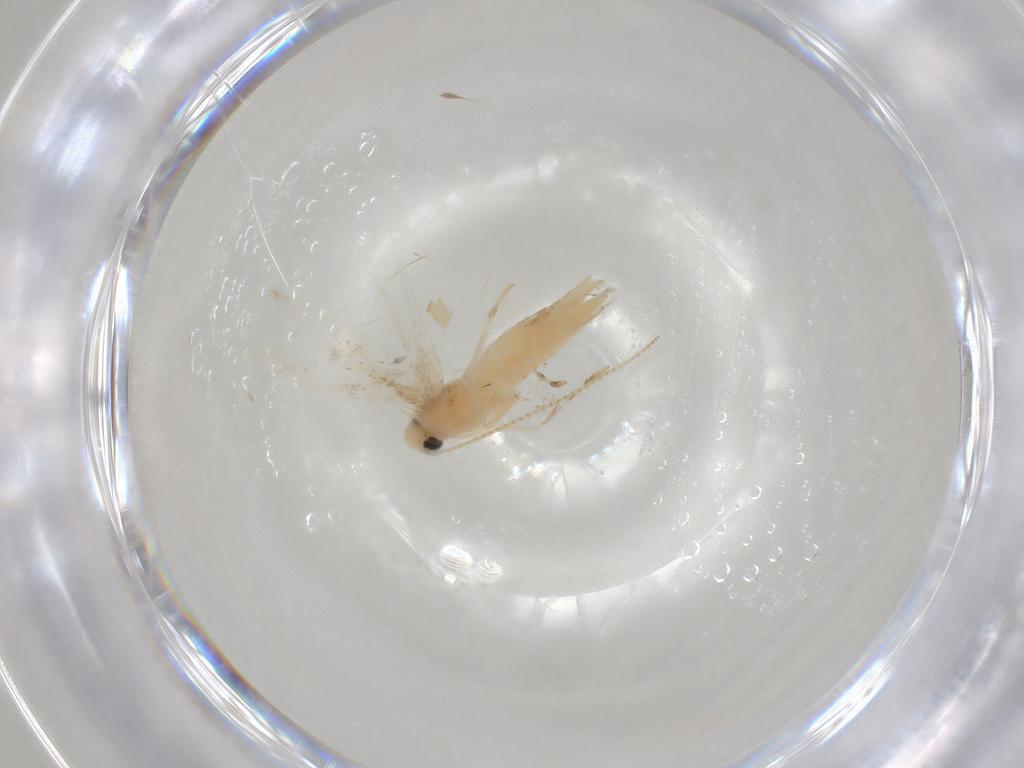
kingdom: Animalia
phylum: Arthropoda
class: Insecta
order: Lepidoptera
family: Gracillariidae
